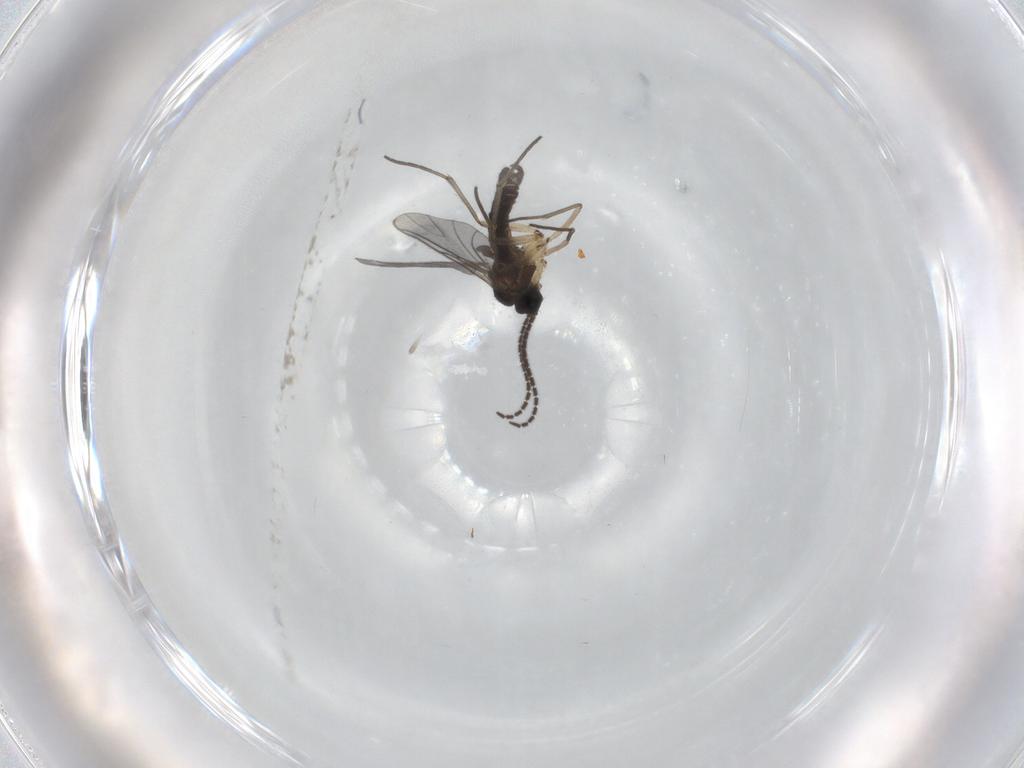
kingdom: Animalia
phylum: Arthropoda
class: Insecta
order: Diptera
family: Sciaridae
